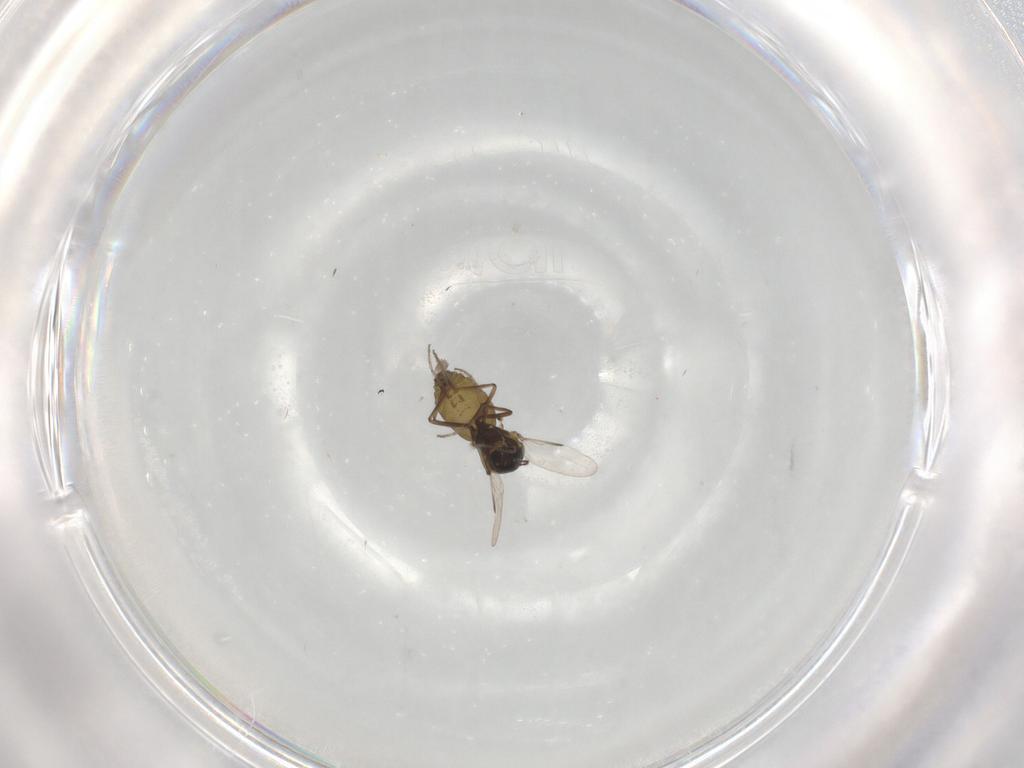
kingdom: Animalia
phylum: Arthropoda
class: Insecta
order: Diptera
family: Ceratopogonidae
